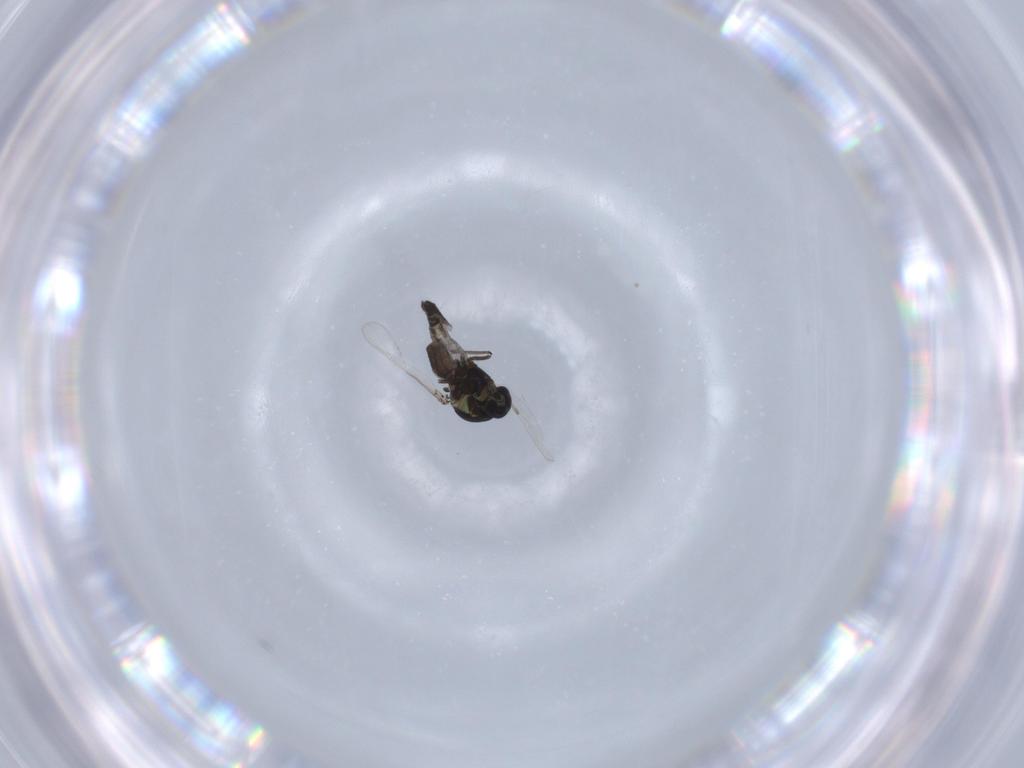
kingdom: Animalia
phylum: Arthropoda
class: Insecta
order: Diptera
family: Ceratopogonidae
